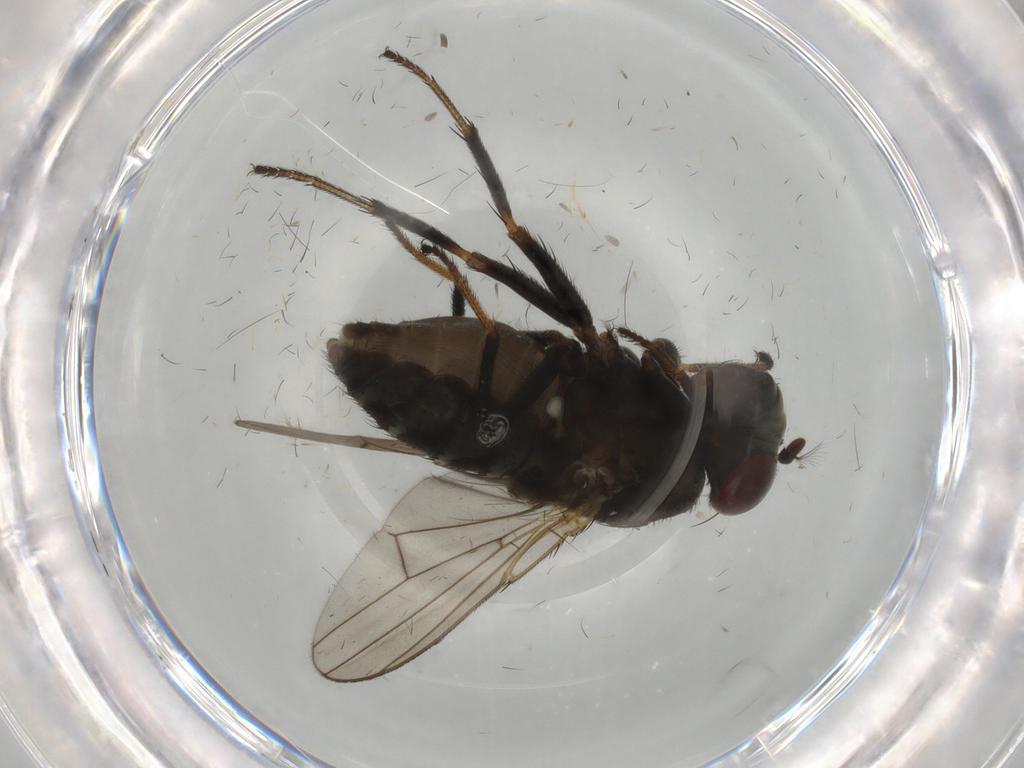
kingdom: Animalia
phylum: Arthropoda
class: Insecta
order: Diptera
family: Ephydridae
